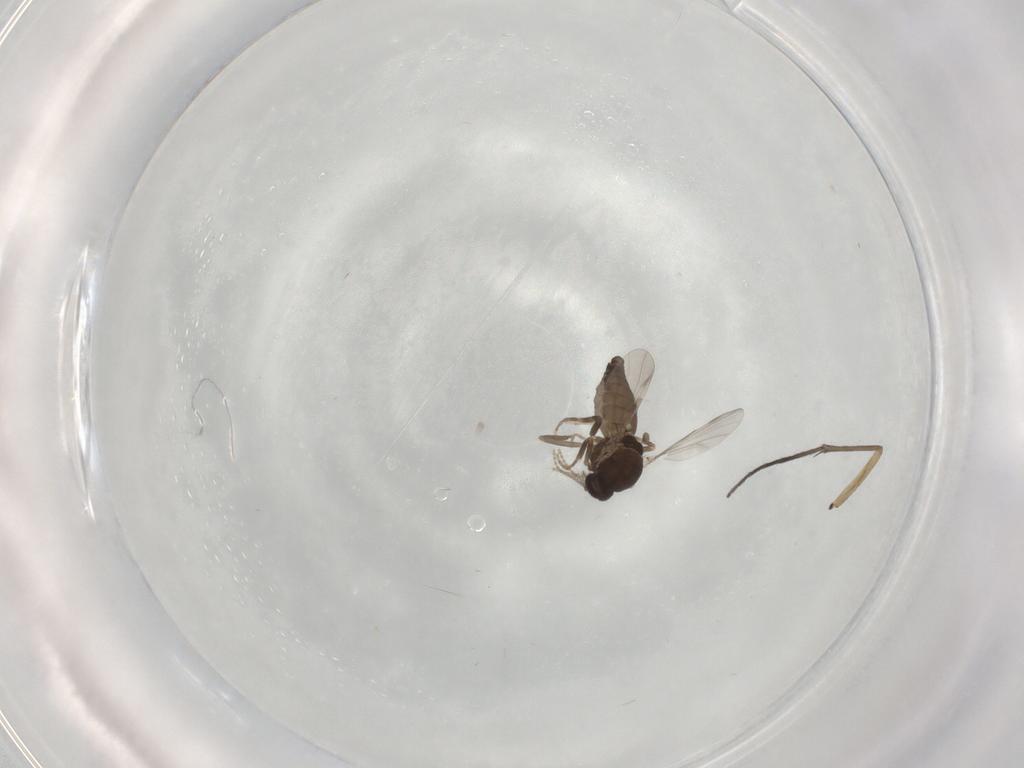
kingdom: Animalia
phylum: Arthropoda
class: Insecta
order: Diptera
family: Ceratopogonidae
